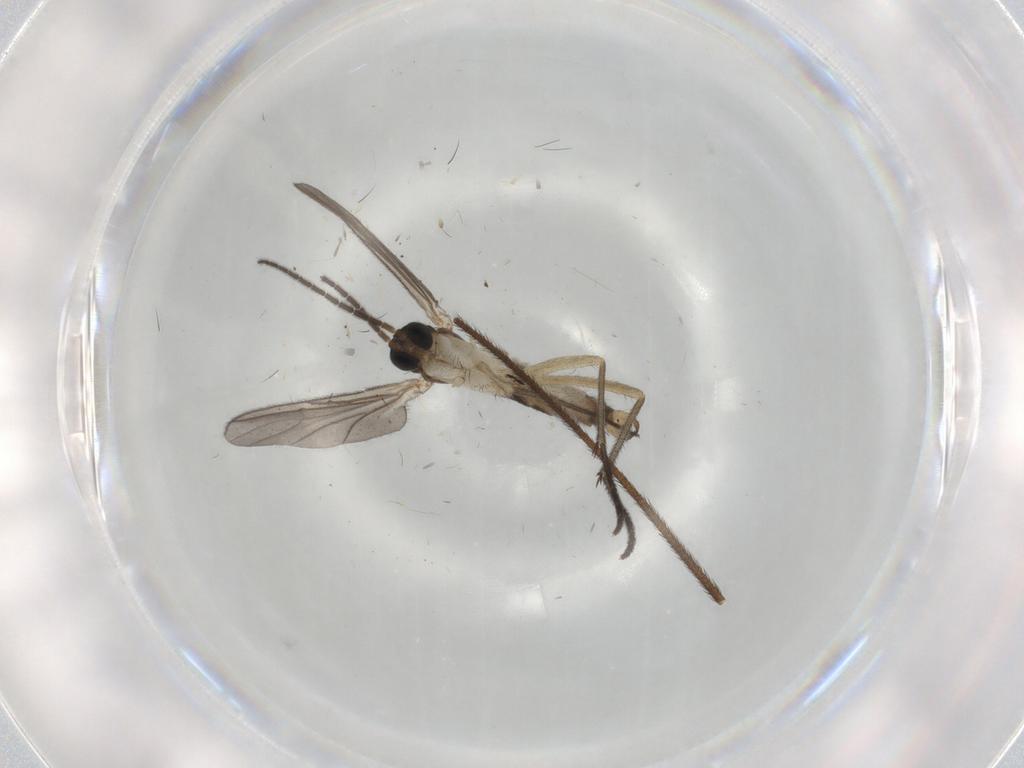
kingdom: Animalia
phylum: Arthropoda
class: Insecta
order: Diptera
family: Sciaridae
